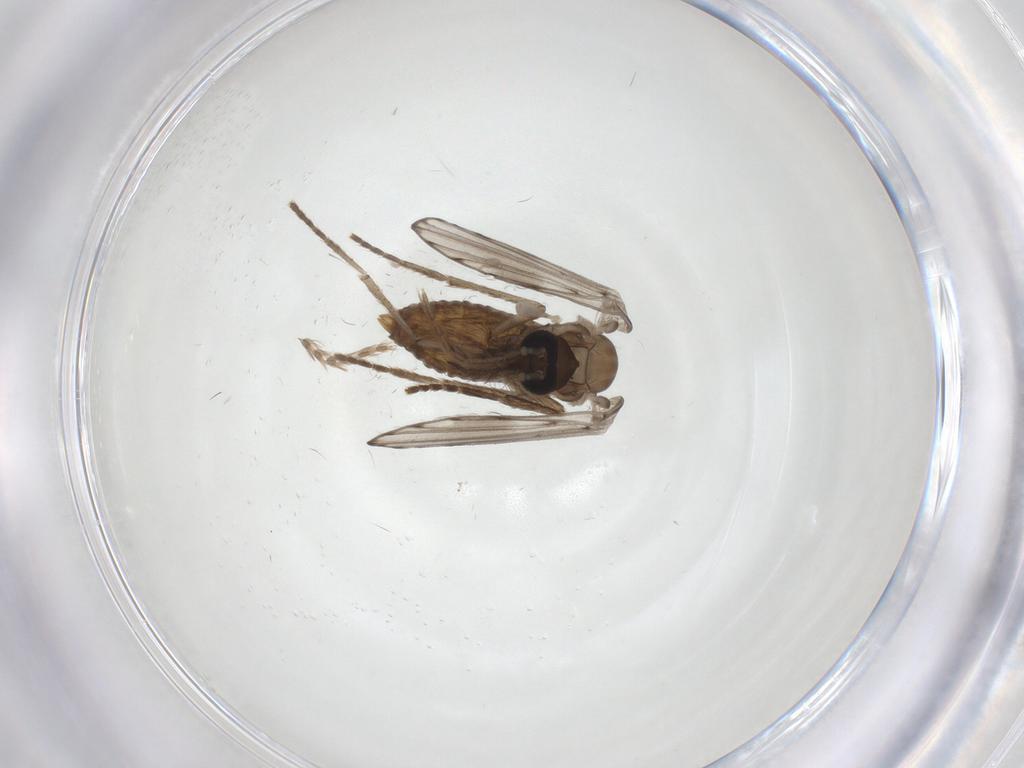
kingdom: Animalia
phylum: Arthropoda
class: Insecta
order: Diptera
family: Psychodidae
